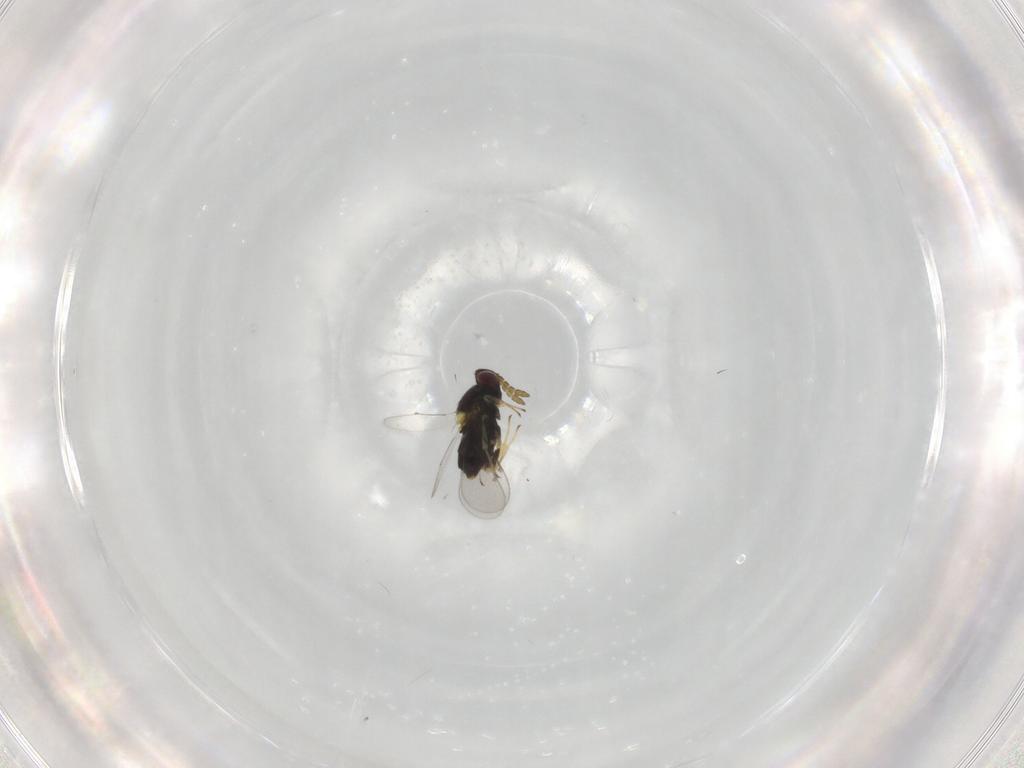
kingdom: Animalia
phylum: Arthropoda
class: Insecta
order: Hymenoptera
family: Aphelinidae
